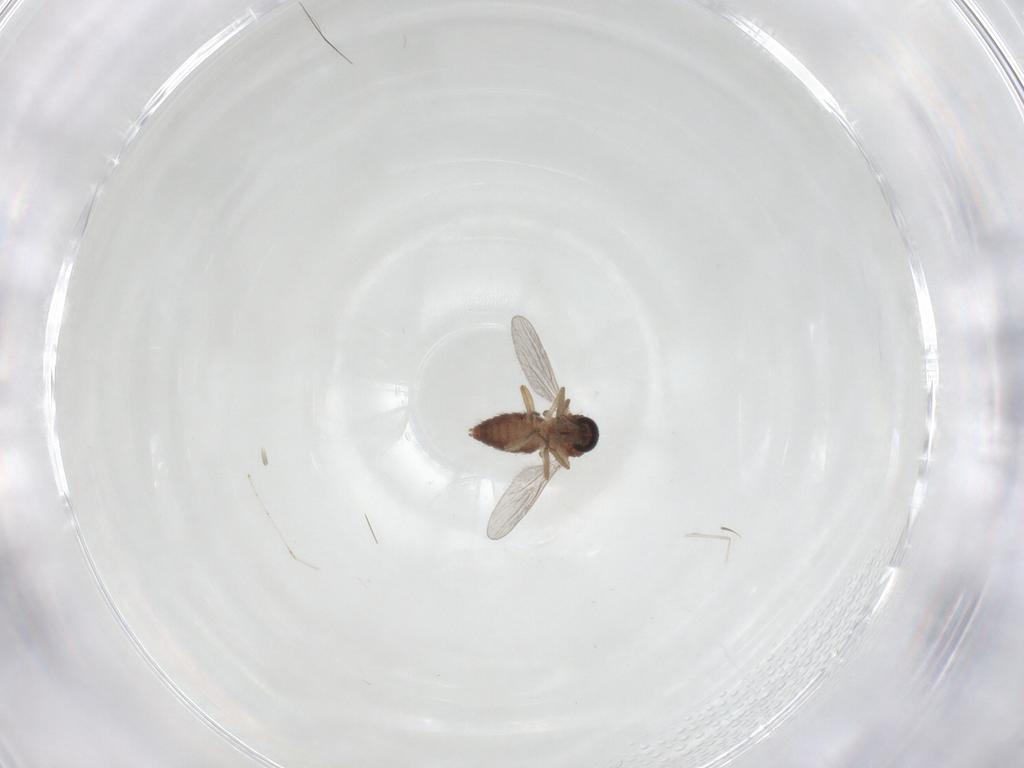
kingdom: Animalia
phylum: Arthropoda
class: Insecta
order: Diptera
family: Ceratopogonidae
